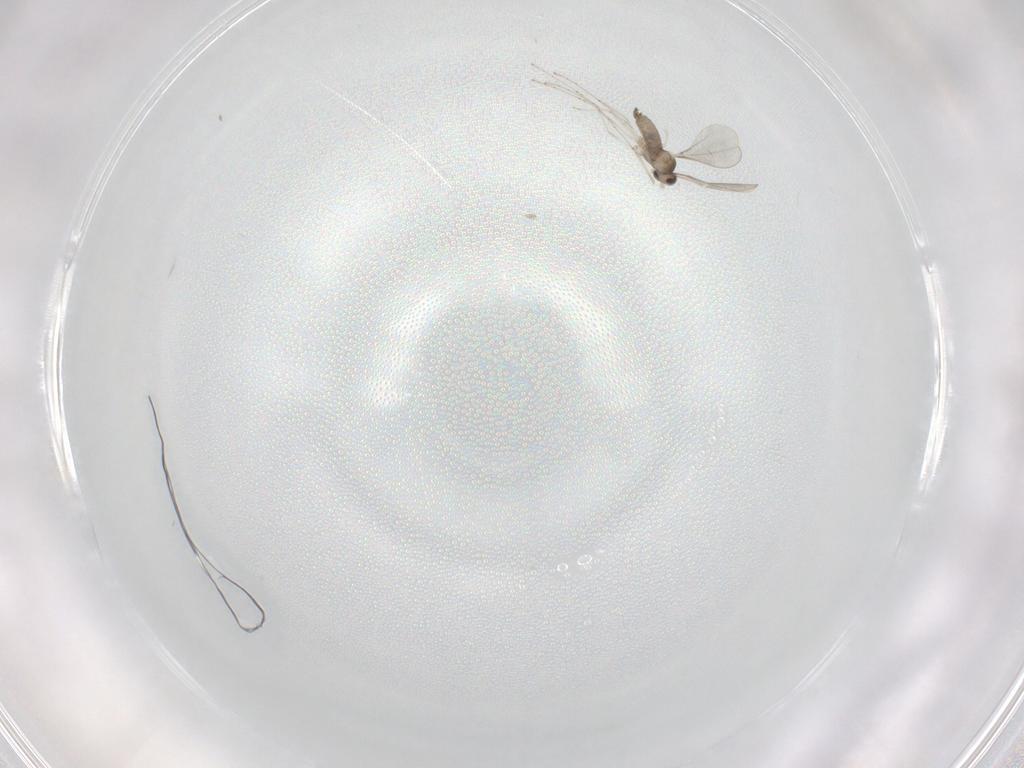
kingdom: Animalia
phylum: Arthropoda
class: Insecta
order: Diptera
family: Cecidomyiidae
